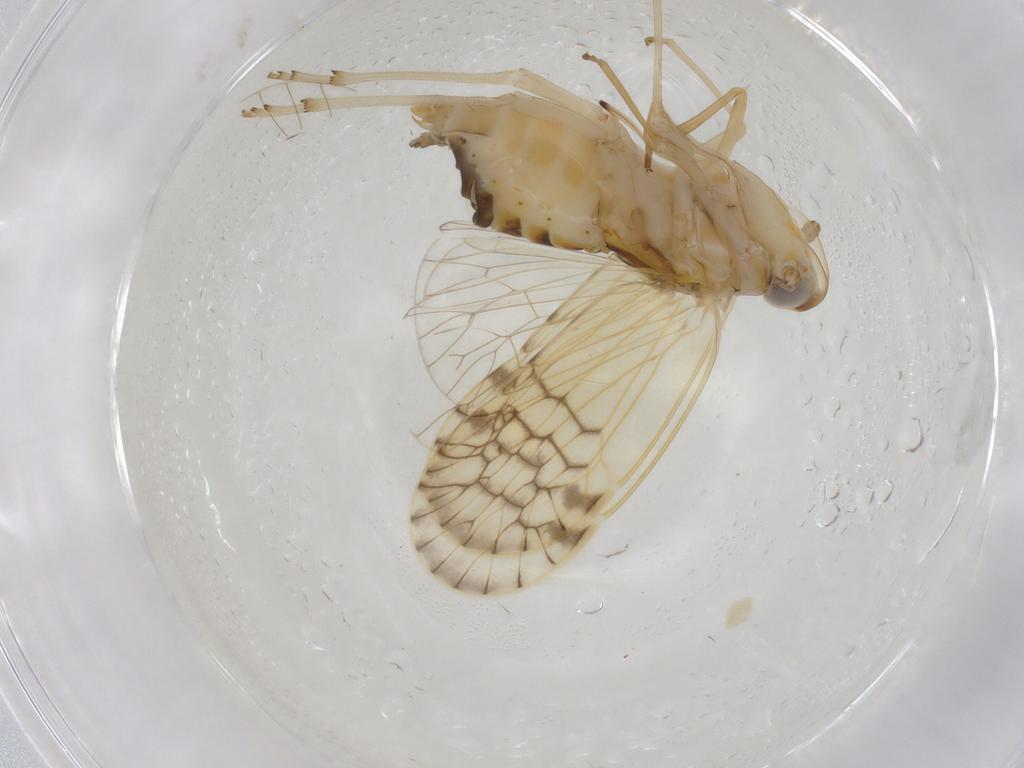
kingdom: Animalia
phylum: Arthropoda
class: Insecta
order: Hemiptera
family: Kinnaridae
